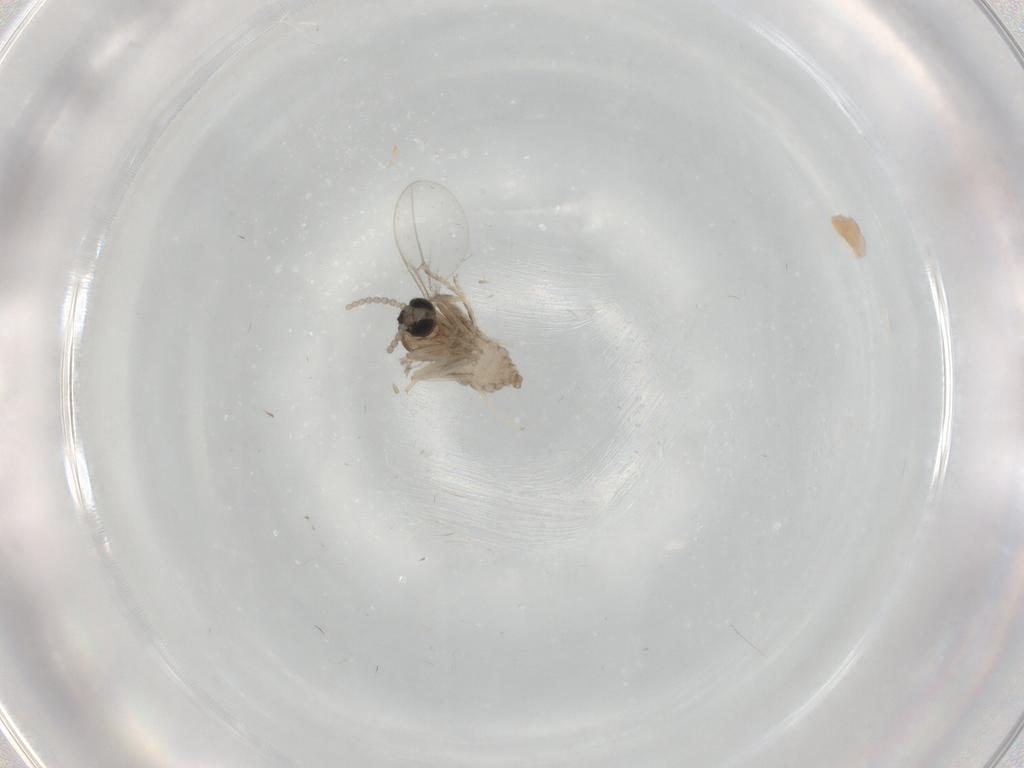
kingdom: Animalia
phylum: Arthropoda
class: Insecta
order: Diptera
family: Cecidomyiidae
